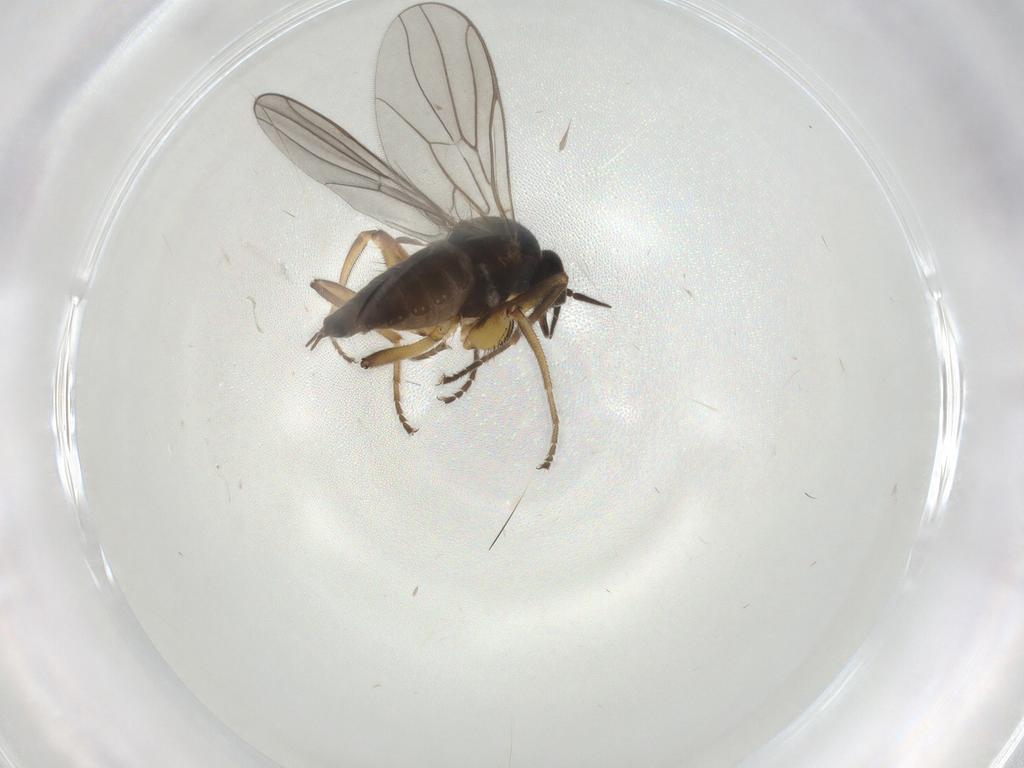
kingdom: Animalia
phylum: Arthropoda
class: Insecta
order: Diptera
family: Hybotidae
